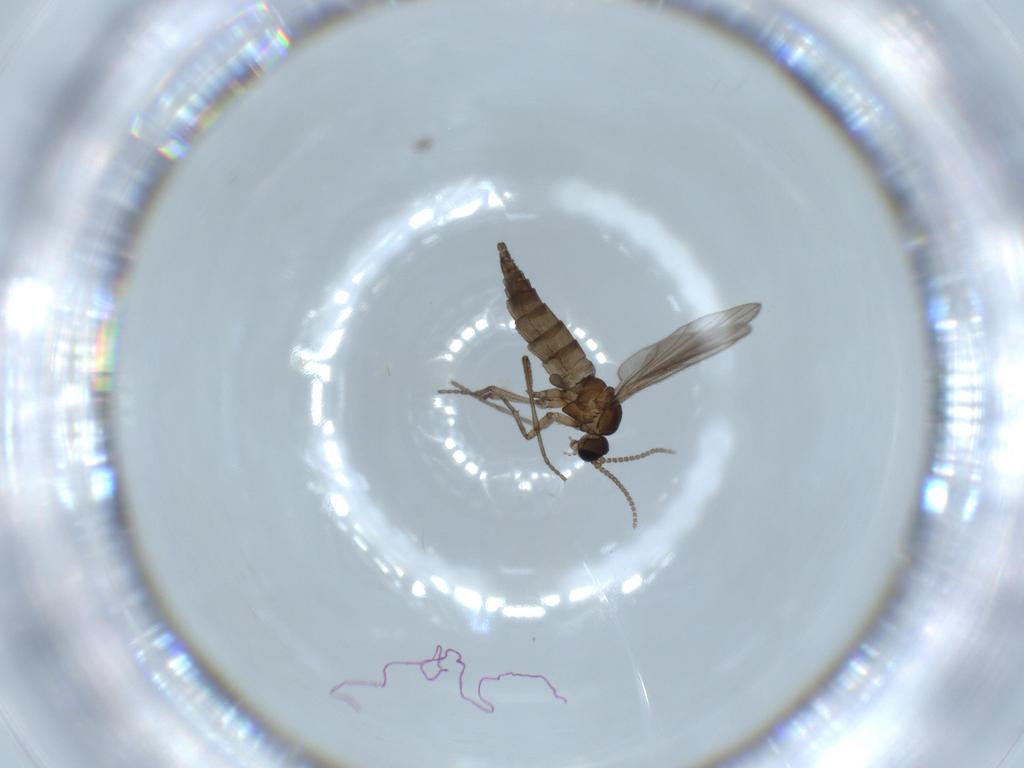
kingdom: Animalia
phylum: Arthropoda
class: Insecta
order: Diptera
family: Sciaridae
